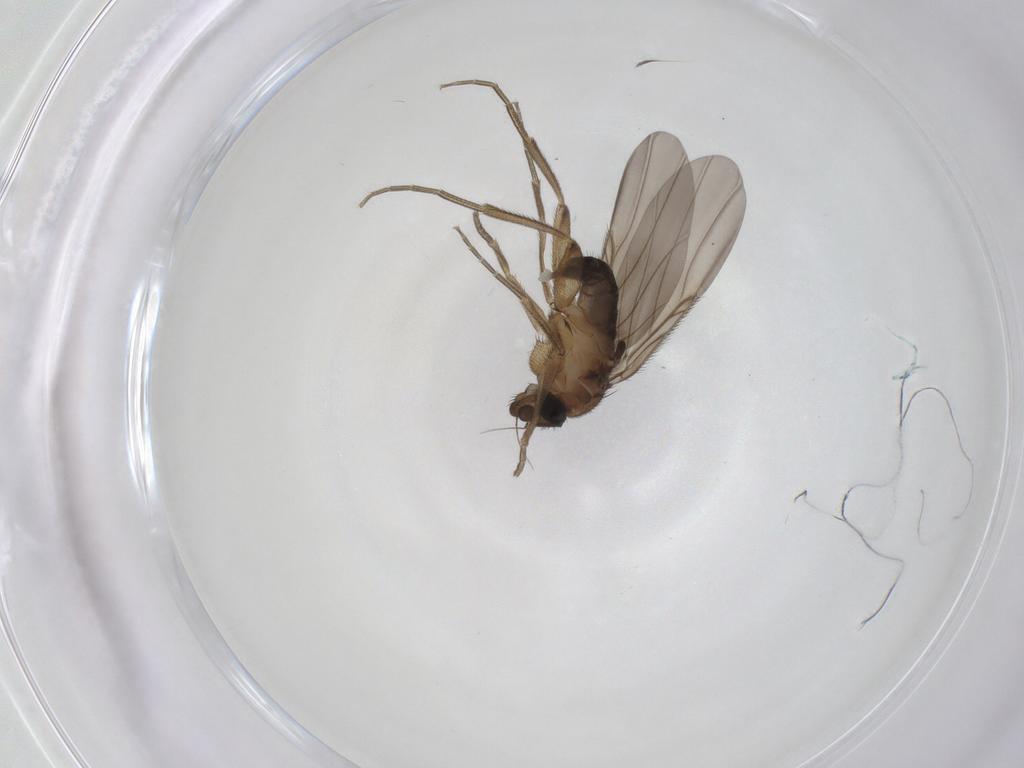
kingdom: Animalia
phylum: Arthropoda
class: Insecta
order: Diptera
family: Phoridae
